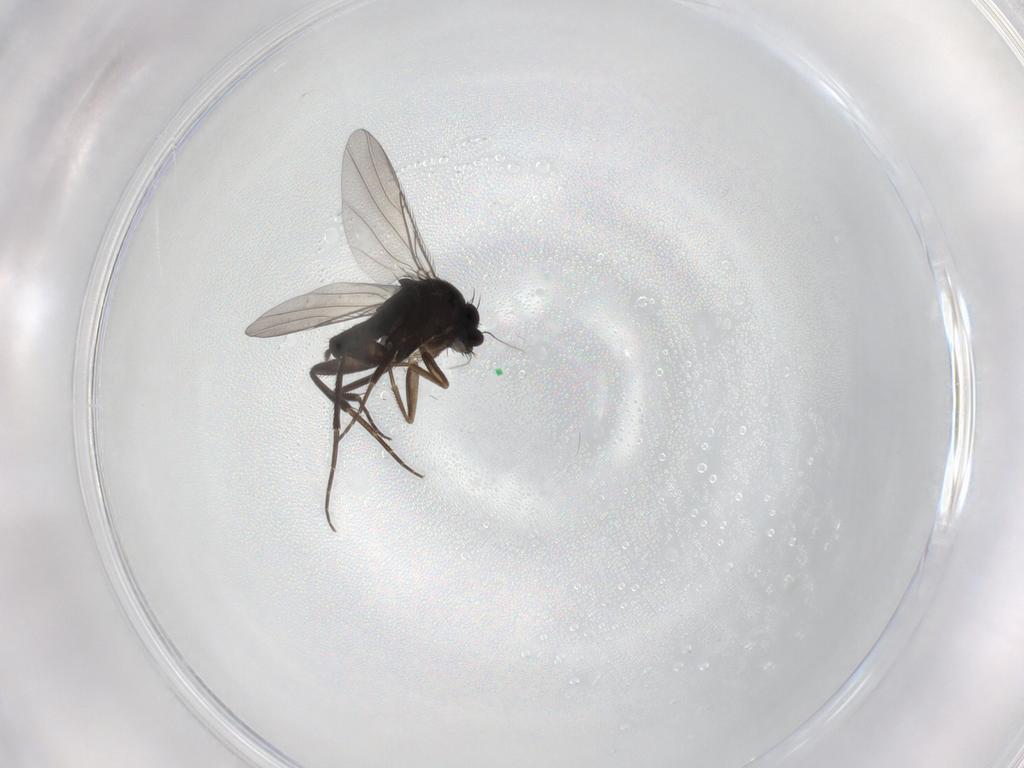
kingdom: Animalia
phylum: Arthropoda
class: Insecta
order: Diptera
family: Phoridae
